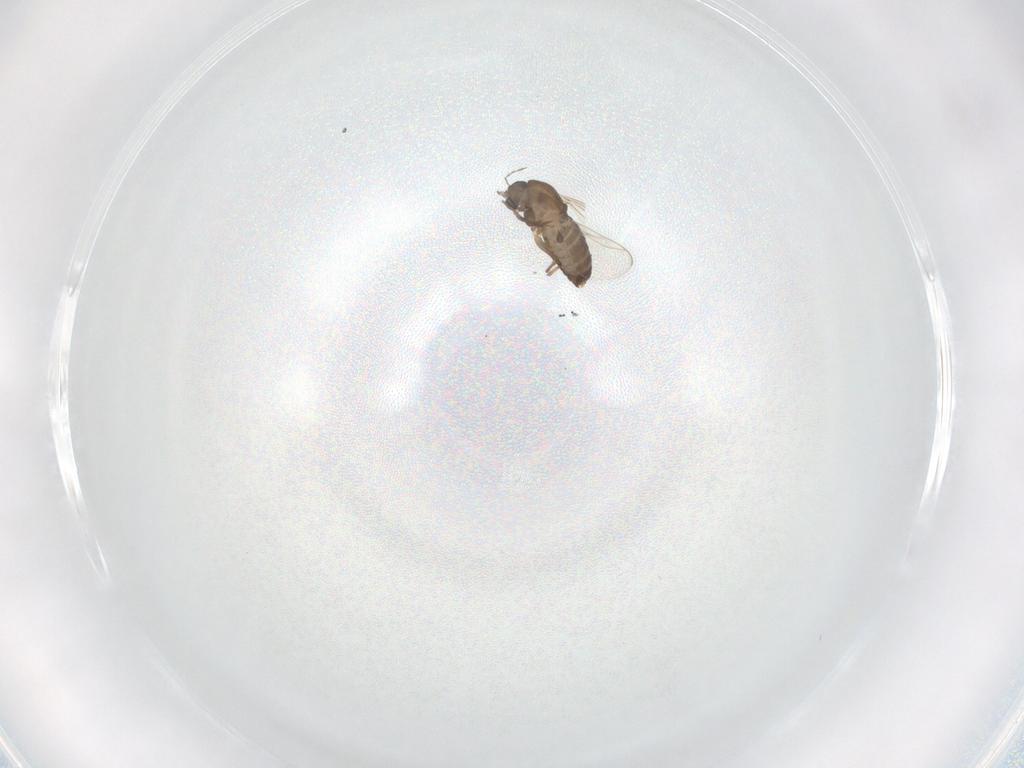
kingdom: Animalia
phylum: Arthropoda
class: Insecta
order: Diptera
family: Chironomidae
